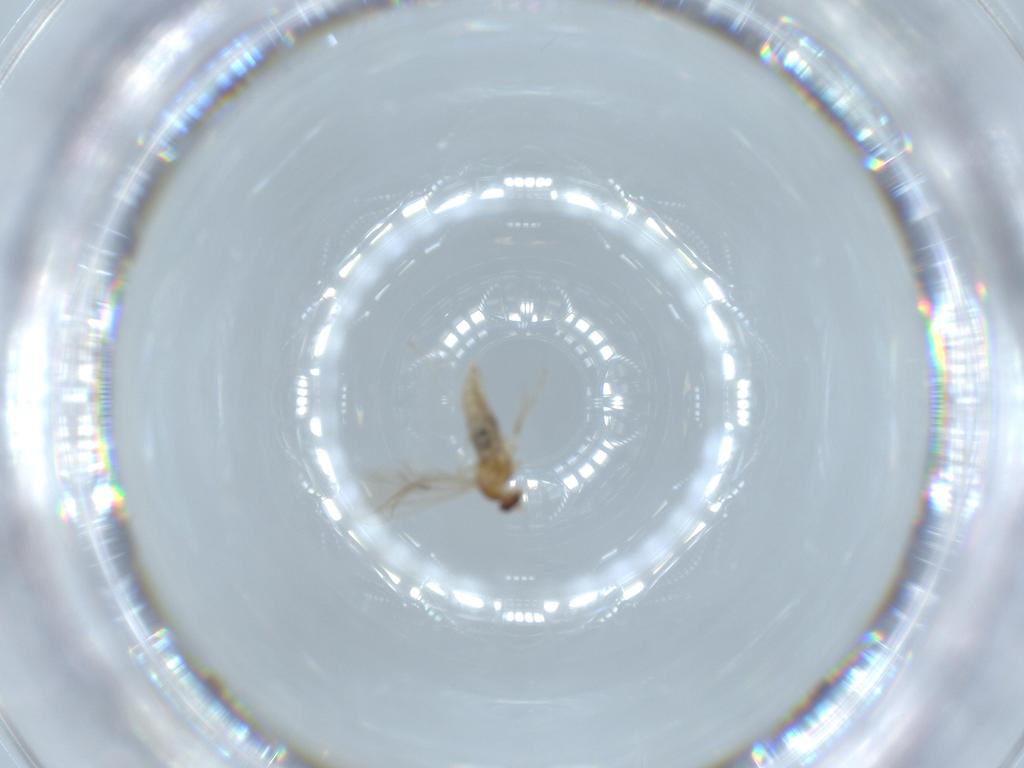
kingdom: Animalia
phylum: Arthropoda
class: Insecta
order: Diptera
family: Cecidomyiidae
